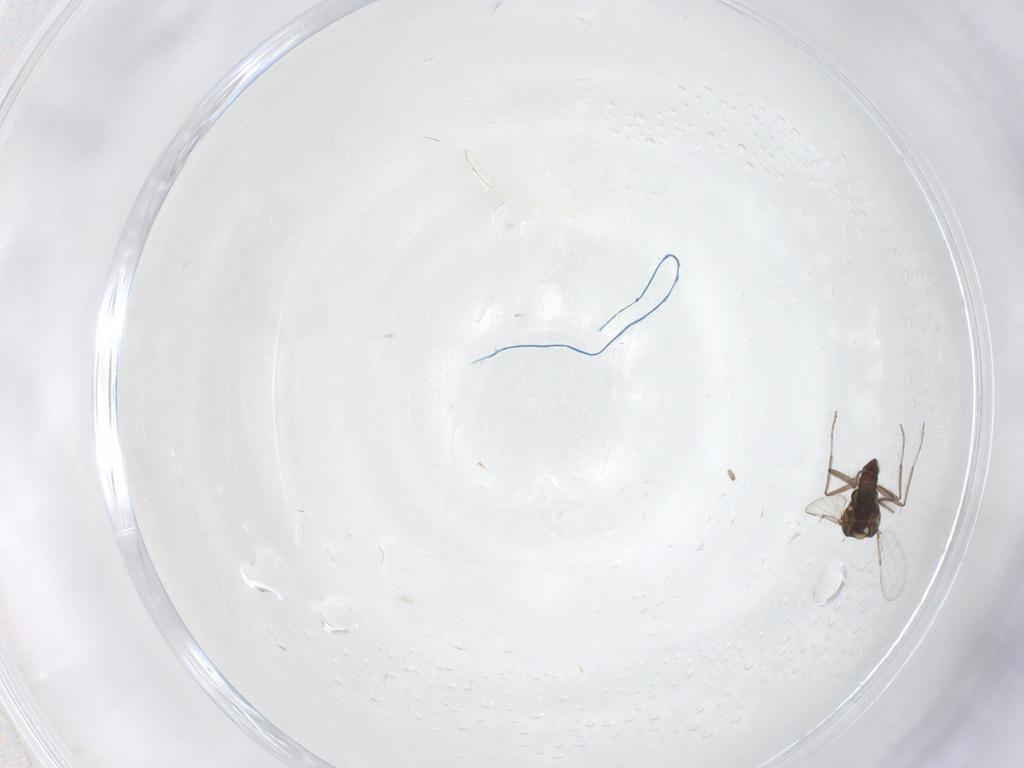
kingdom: Animalia
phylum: Arthropoda
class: Insecta
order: Diptera
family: Ceratopogonidae
